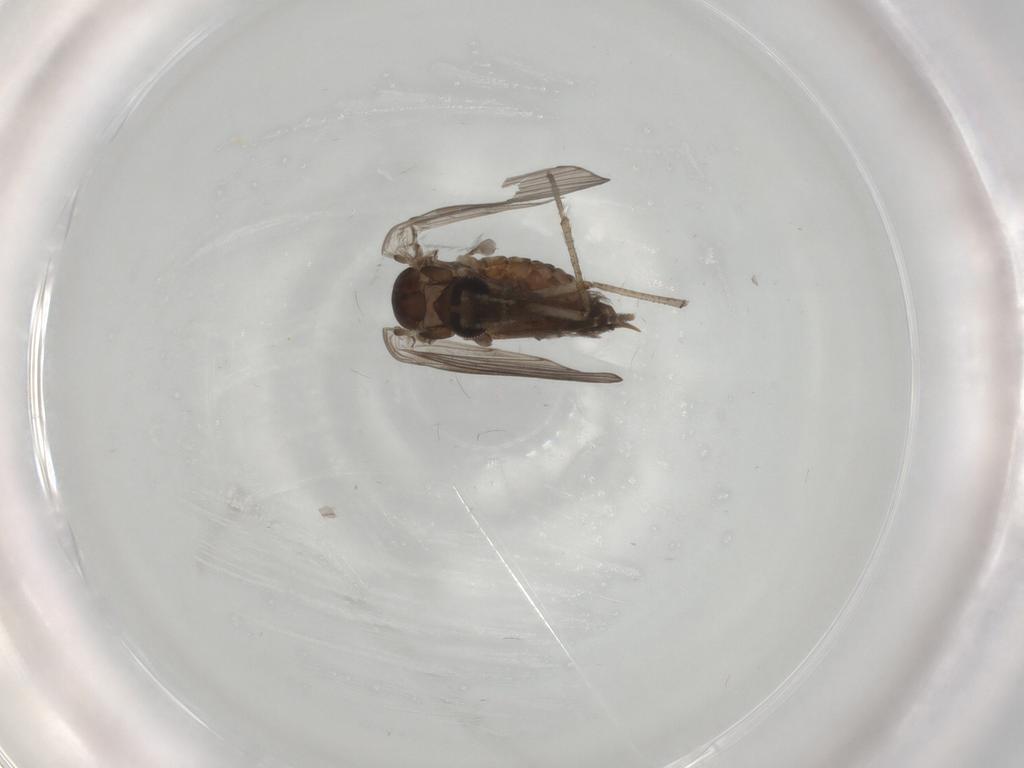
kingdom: Animalia
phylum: Arthropoda
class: Insecta
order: Diptera
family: Psychodidae
